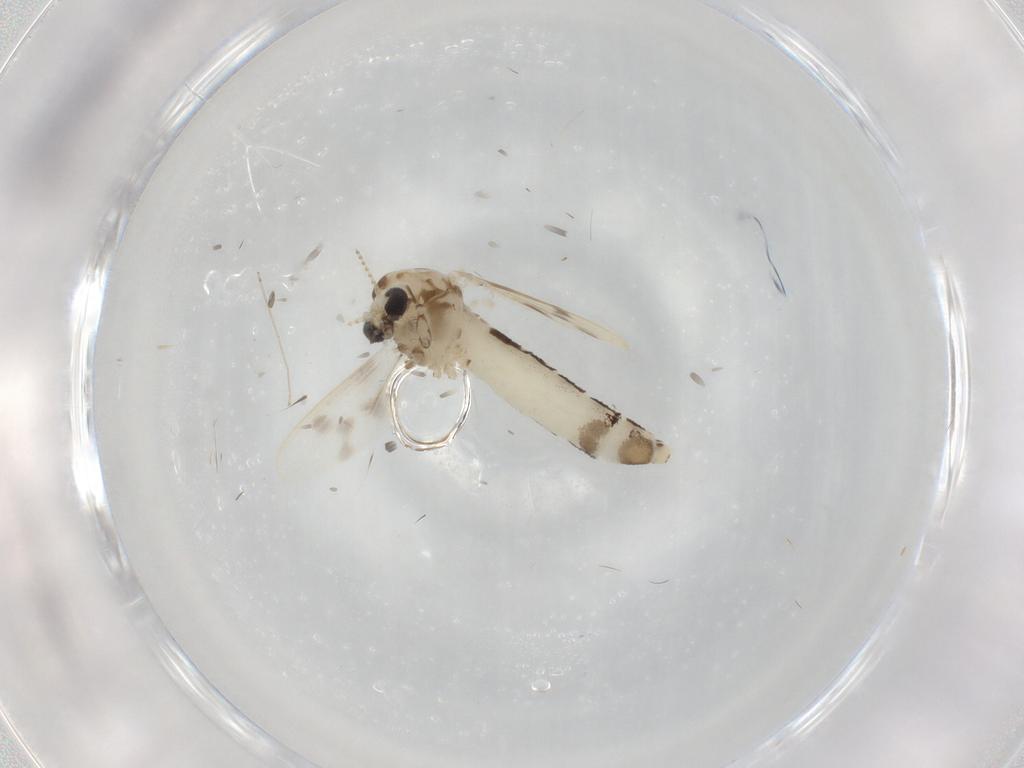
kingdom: Animalia
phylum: Arthropoda
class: Insecta
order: Diptera
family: Corethrellidae
